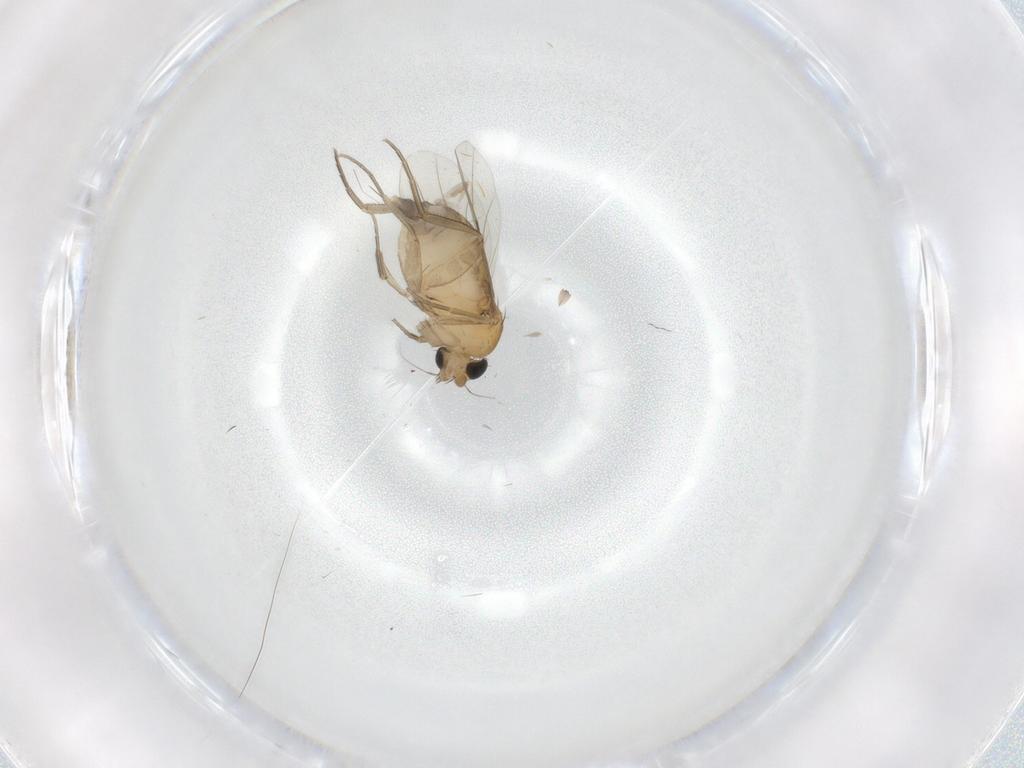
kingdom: Animalia
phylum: Arthropoda
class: Insecta
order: Diptera
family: Phoridae
